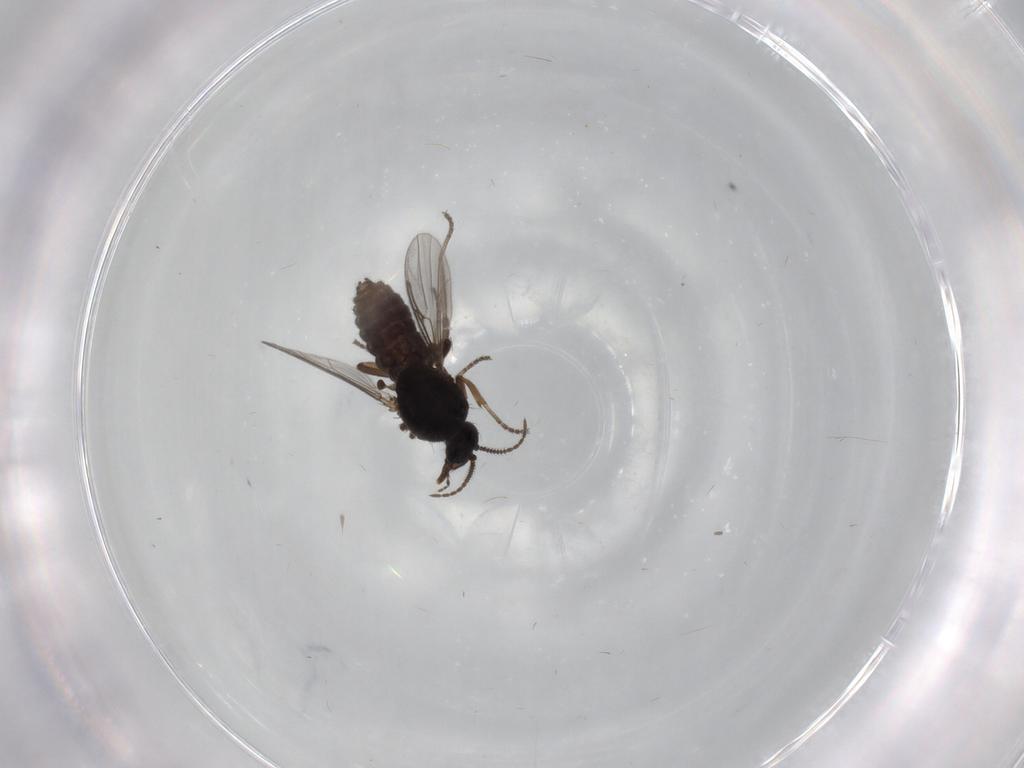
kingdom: Animalia
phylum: Arthropoda
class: Insecta
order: Diptera
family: Ceratopogonidae
